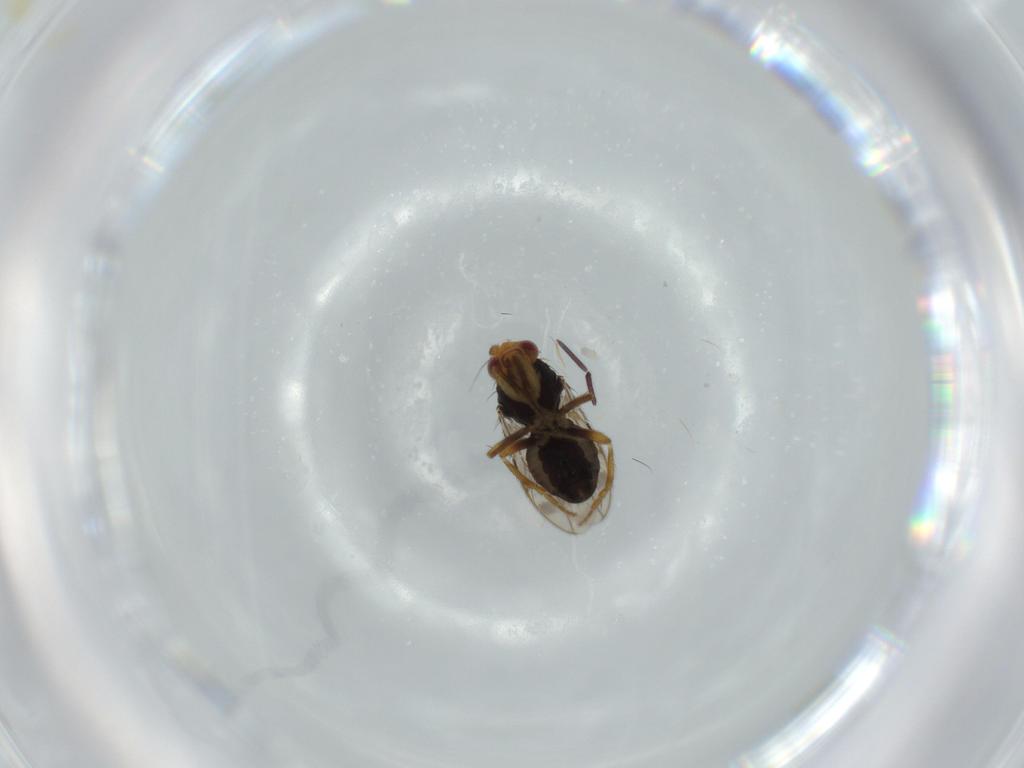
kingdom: Animalia
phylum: Arthropoda
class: Insecta
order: Diptera
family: Sphaeroceridae
